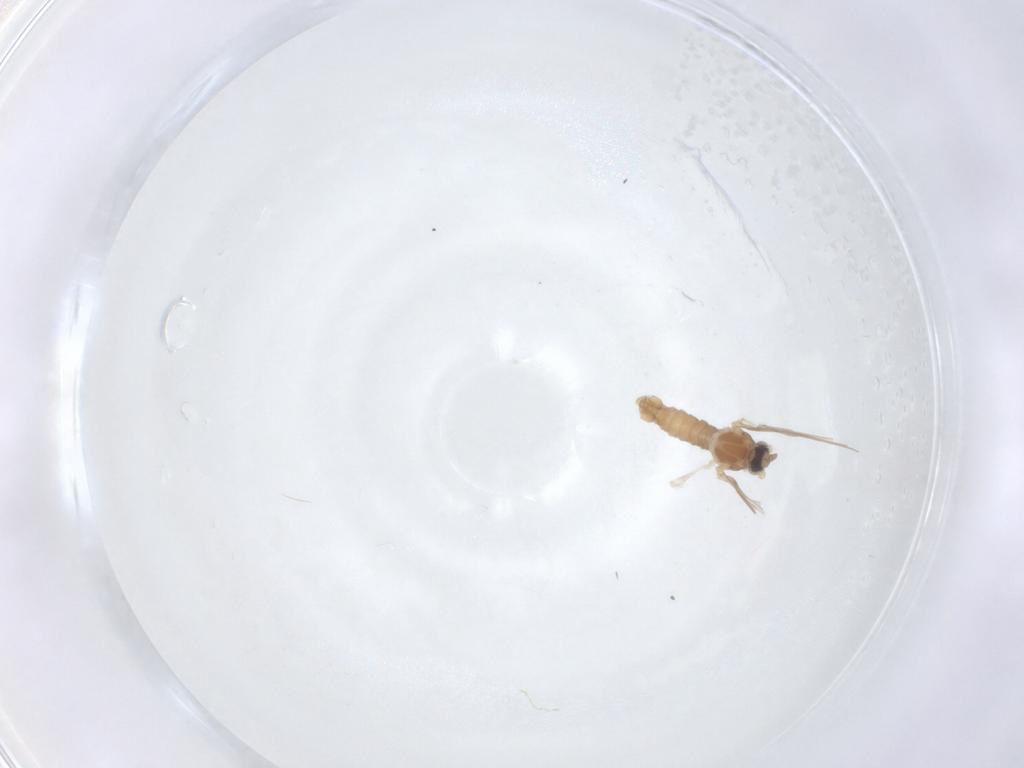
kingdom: Animalia
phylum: Arthropoda
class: Insecta
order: Diptera
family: Cecidomyiidae
